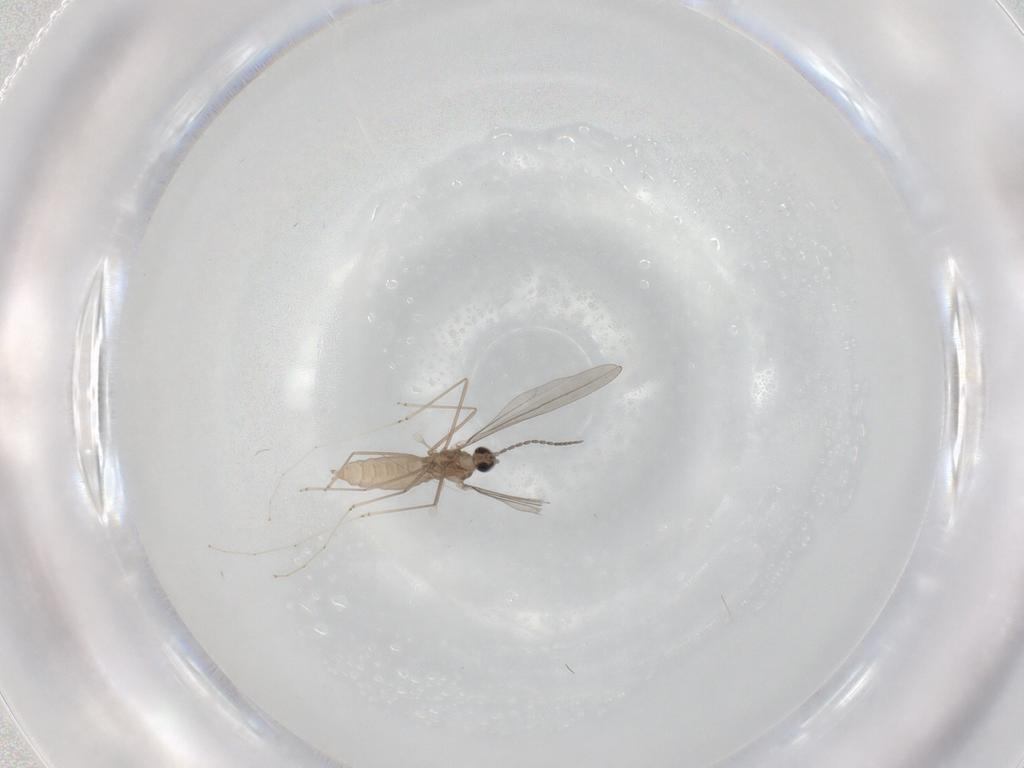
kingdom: Animalia
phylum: Arthropoda
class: Insecta
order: Diptera
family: Cecidomyiidae
